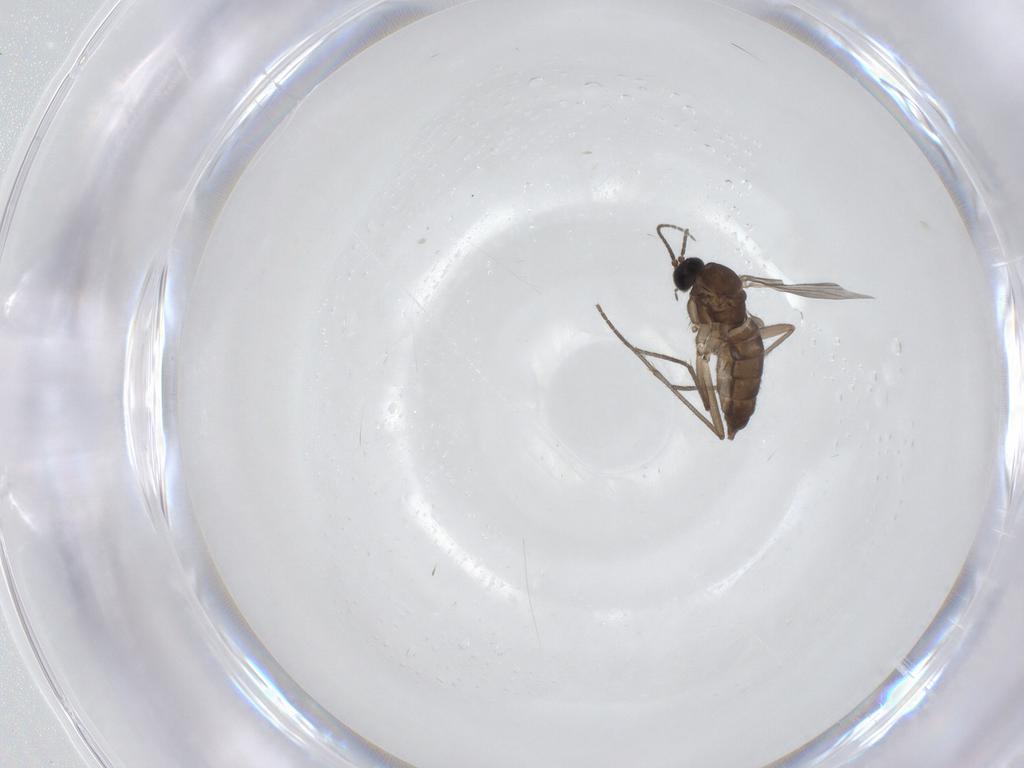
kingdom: Animalia
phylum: Arthropoda
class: Insecta
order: Diptera
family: Sciaridae
